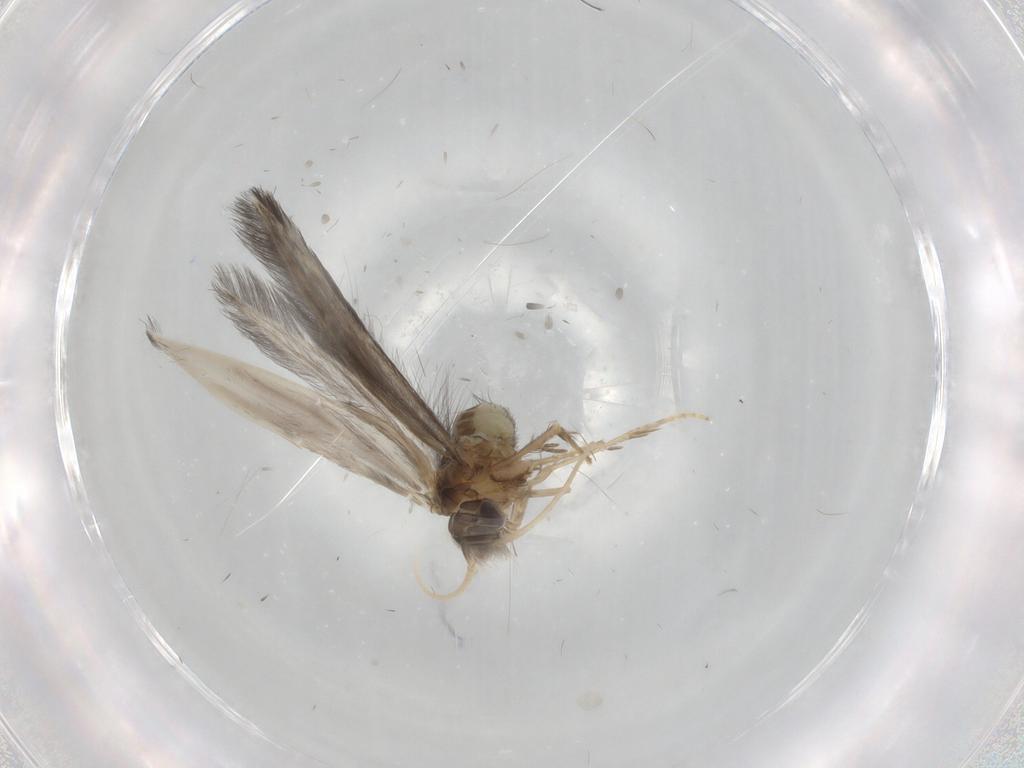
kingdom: Animalia
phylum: Arthropoda
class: Insecta
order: Trichoptera
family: Hydroptilidae
